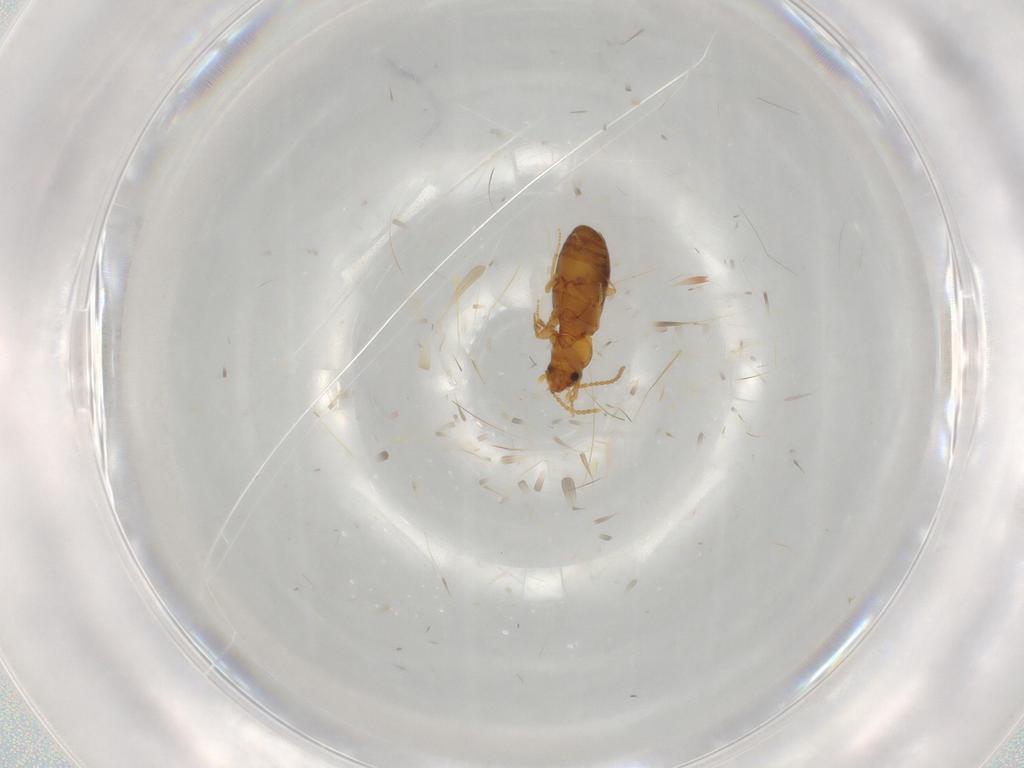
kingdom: Animalia
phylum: Arthropoda
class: Insecta
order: Coleoptera
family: Carabidae
